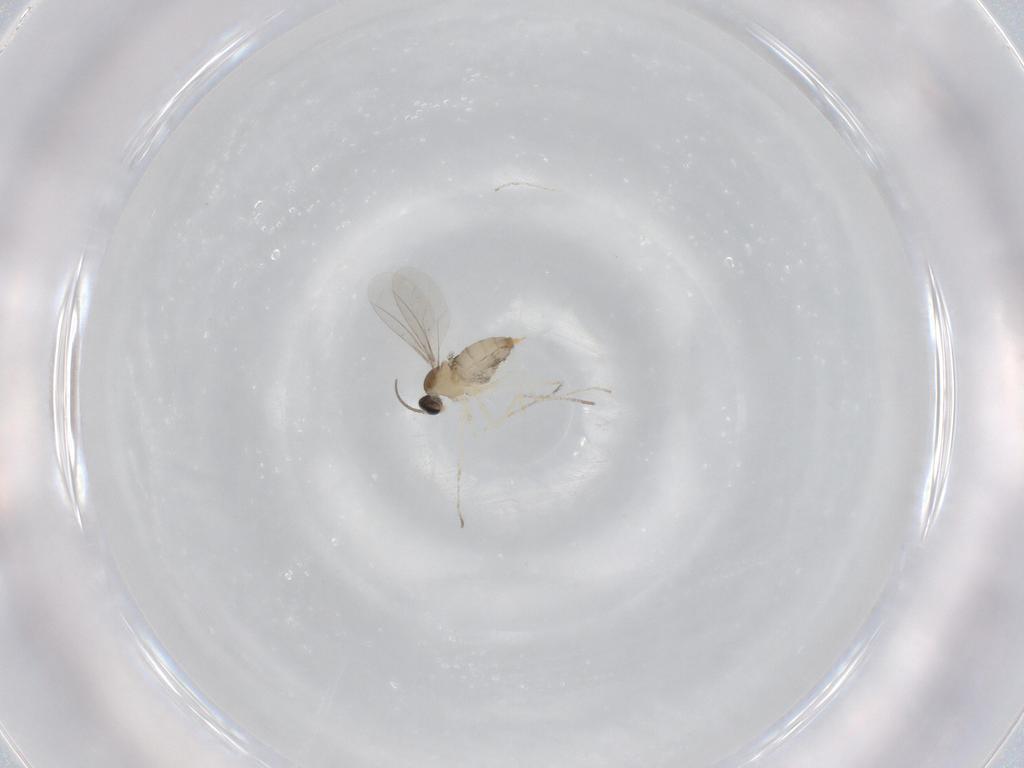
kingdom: Animalia
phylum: Arthropoda
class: Insecta
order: Diptera
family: Cecidomyiidae
